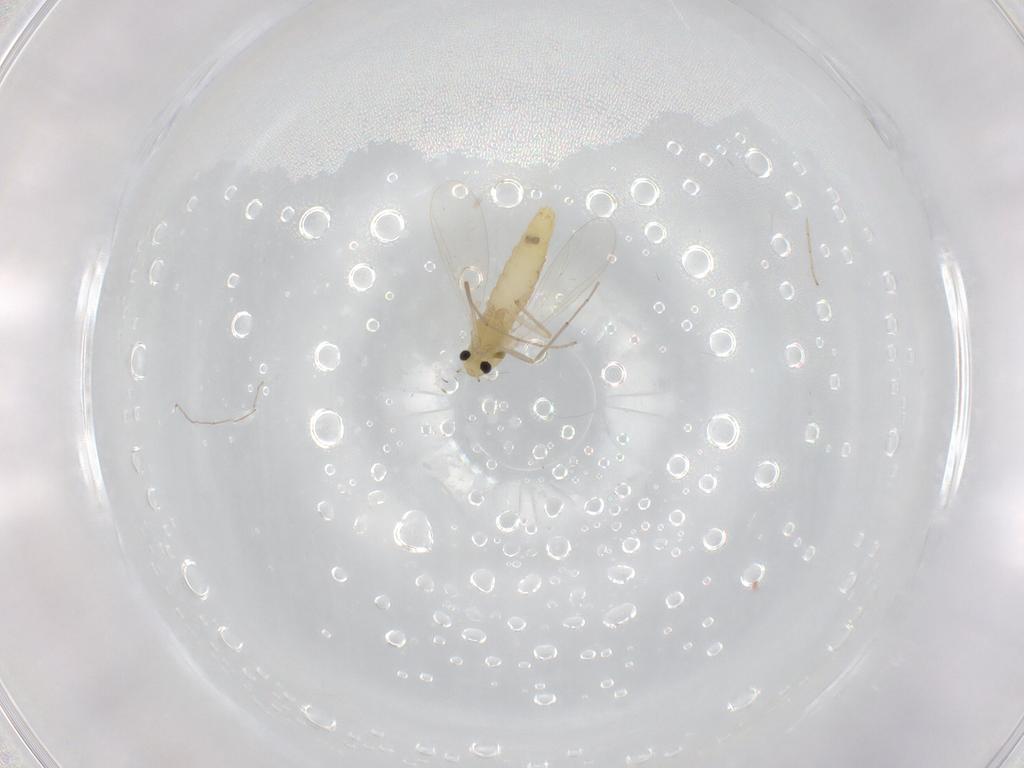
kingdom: Animalia
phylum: Arthropoda
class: Insecta
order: Diptera
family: Chironomidae
